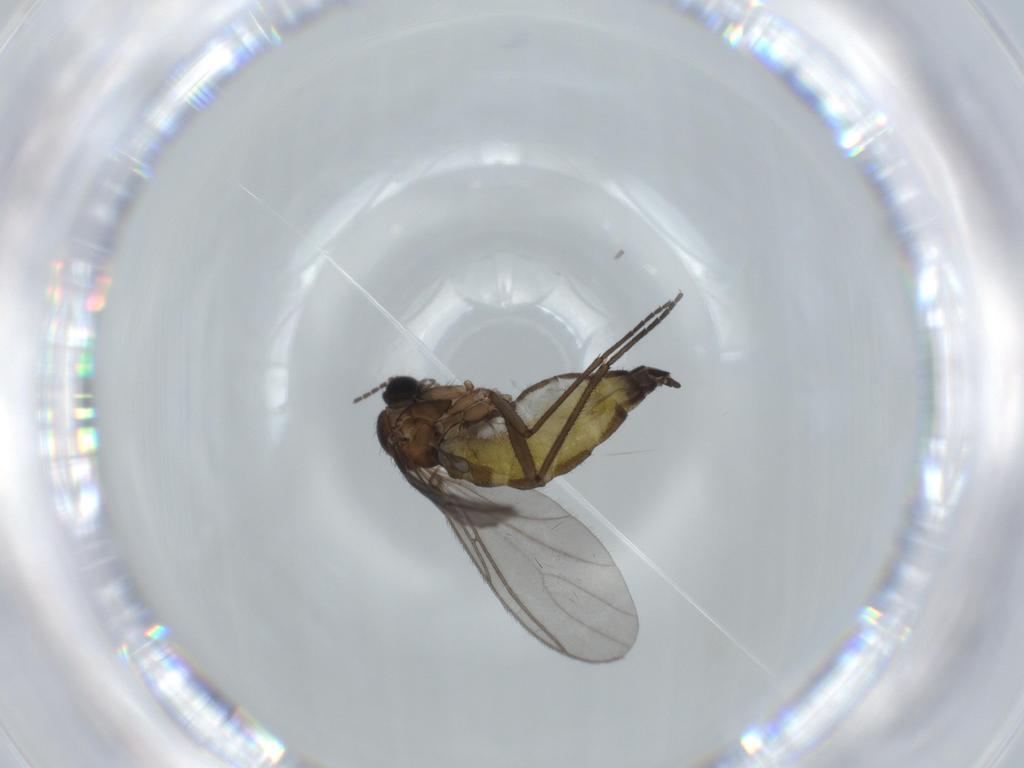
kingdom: Animalia
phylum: Arthropoda
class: Insecta
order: Diptera
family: Sciaridae
